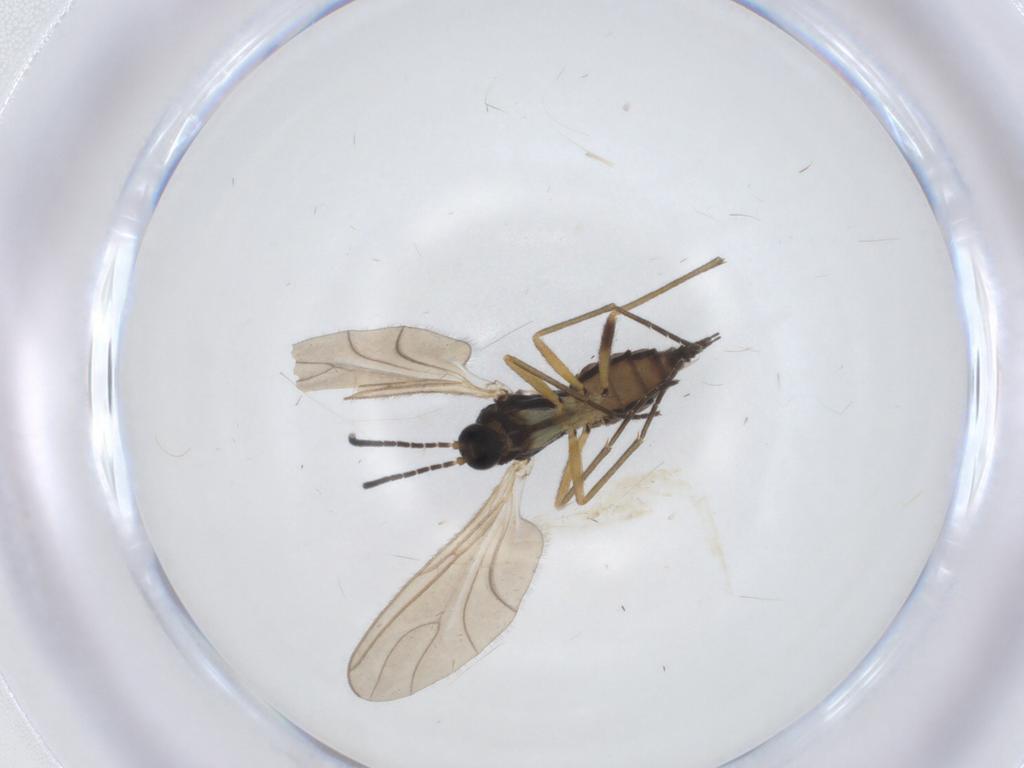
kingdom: Animalia
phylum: Arthropoda
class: Insecta
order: Diptera
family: Sciaridae
